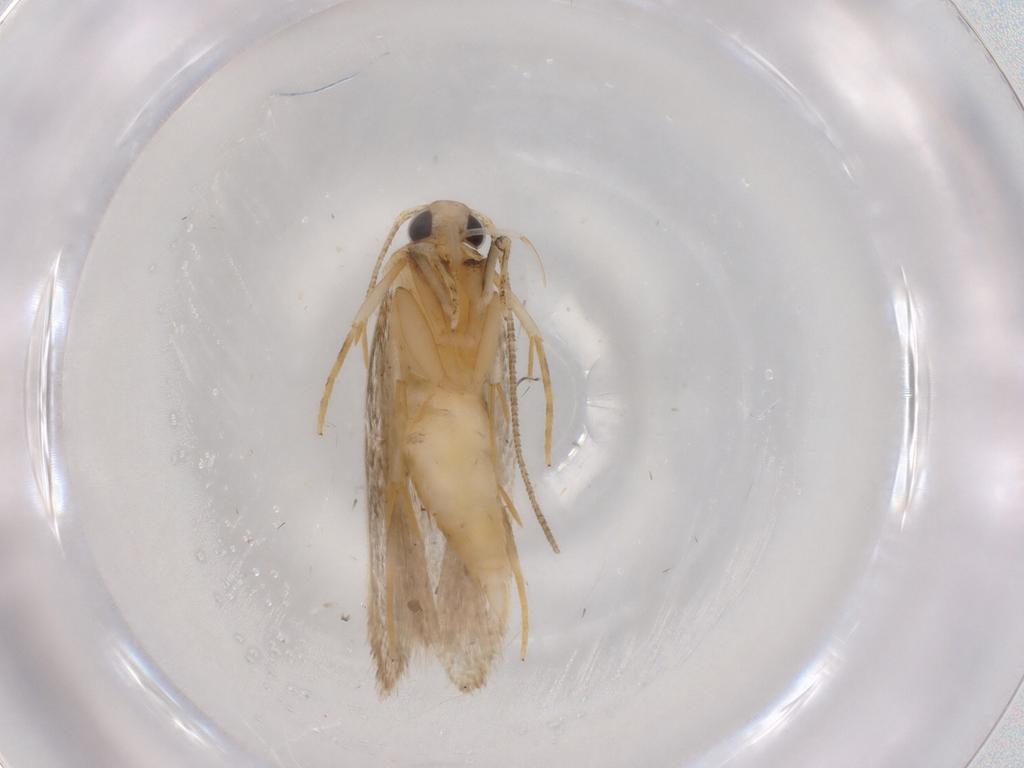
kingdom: Animalia
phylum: Arthropoda
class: Insecta
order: Lepidoptera
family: Autostichidae
